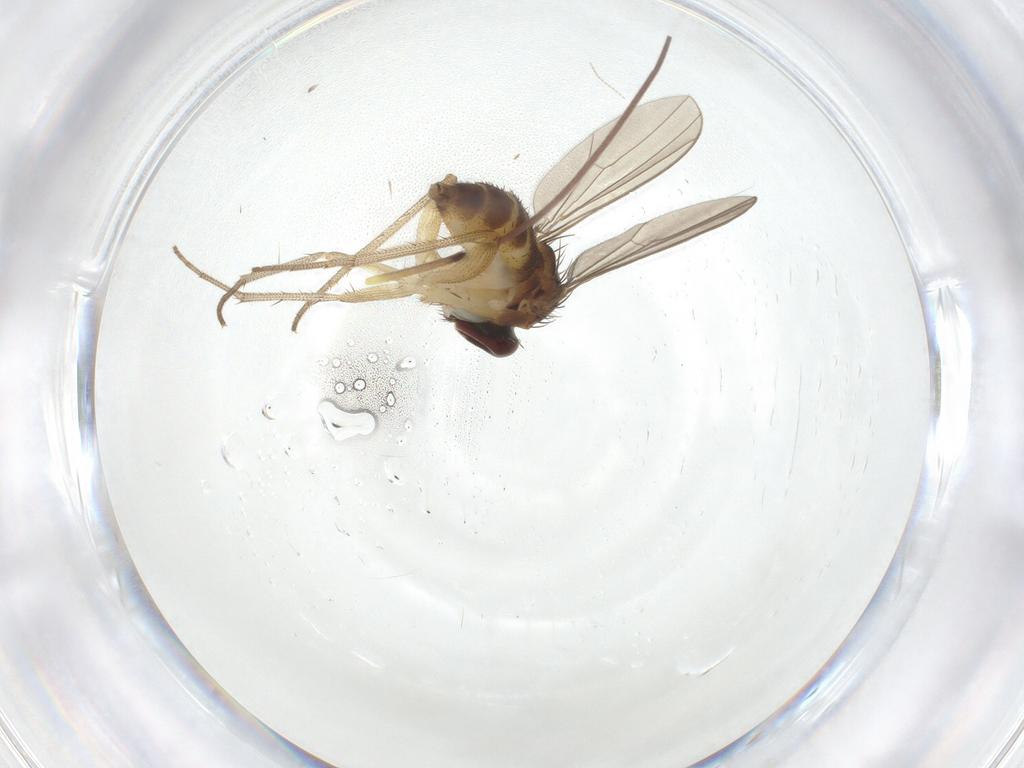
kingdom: Animalia
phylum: Arthropoda
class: Insecta
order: Diptera
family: Dolichopodidae
